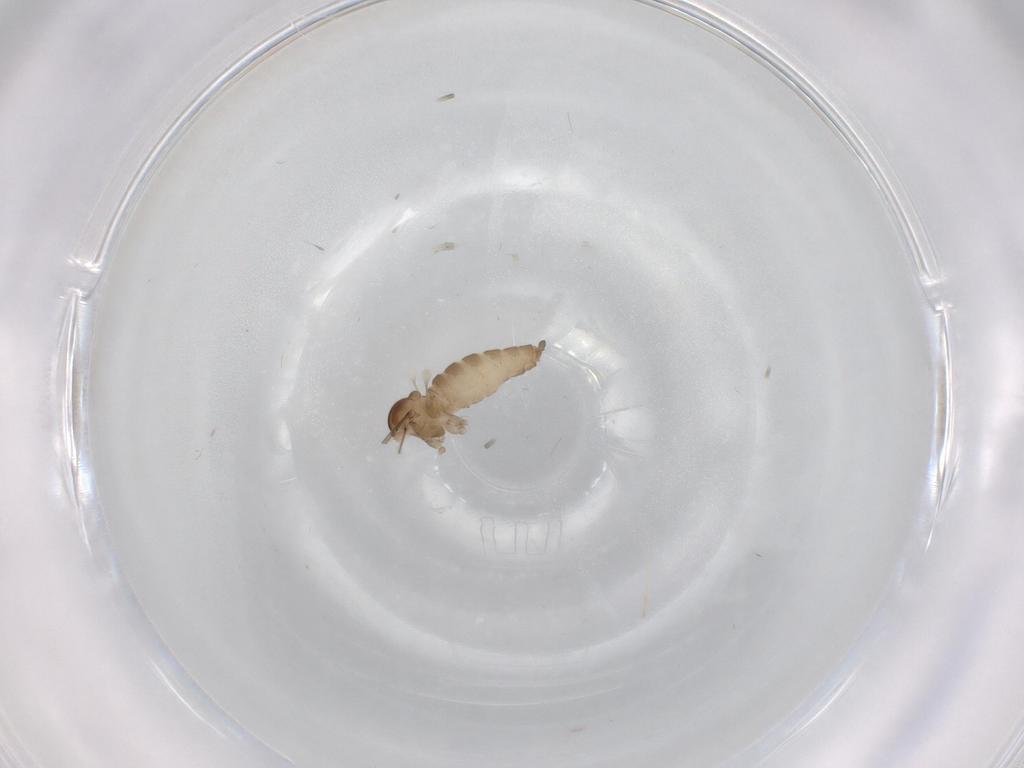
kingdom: Animalia
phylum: Arthropoda
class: Insecta
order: Diptera
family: Cecidomyiidae
